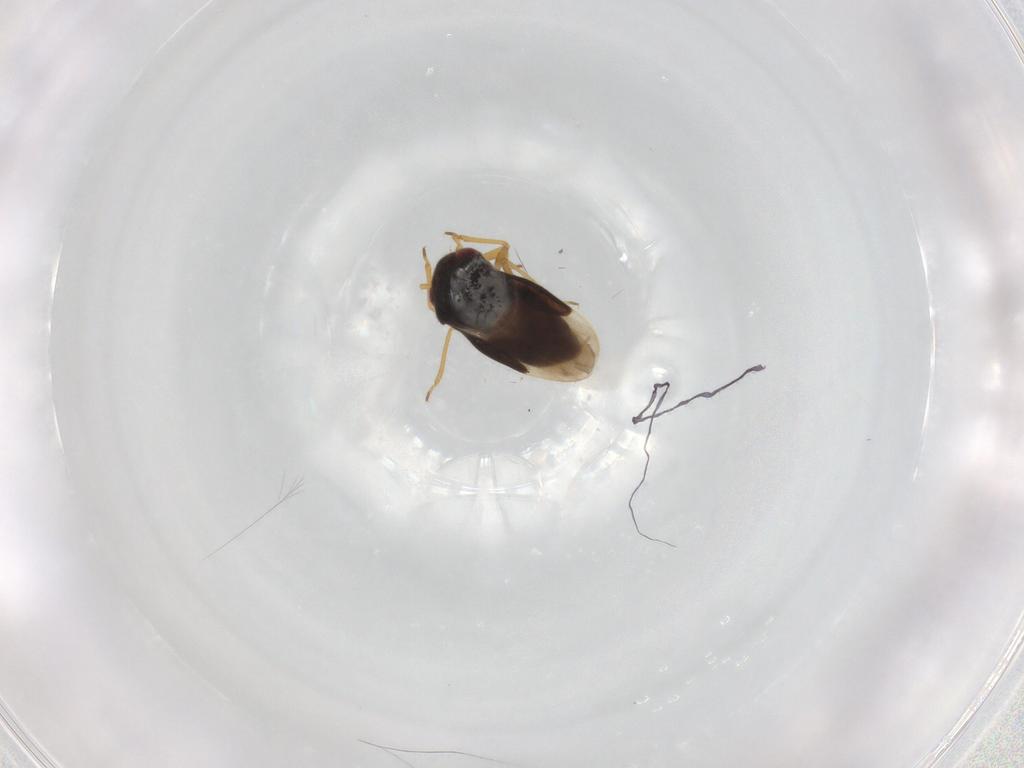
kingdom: Animalia
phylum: Arthropoda
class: Insecta
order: Hemiptera
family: Schizopteridae
